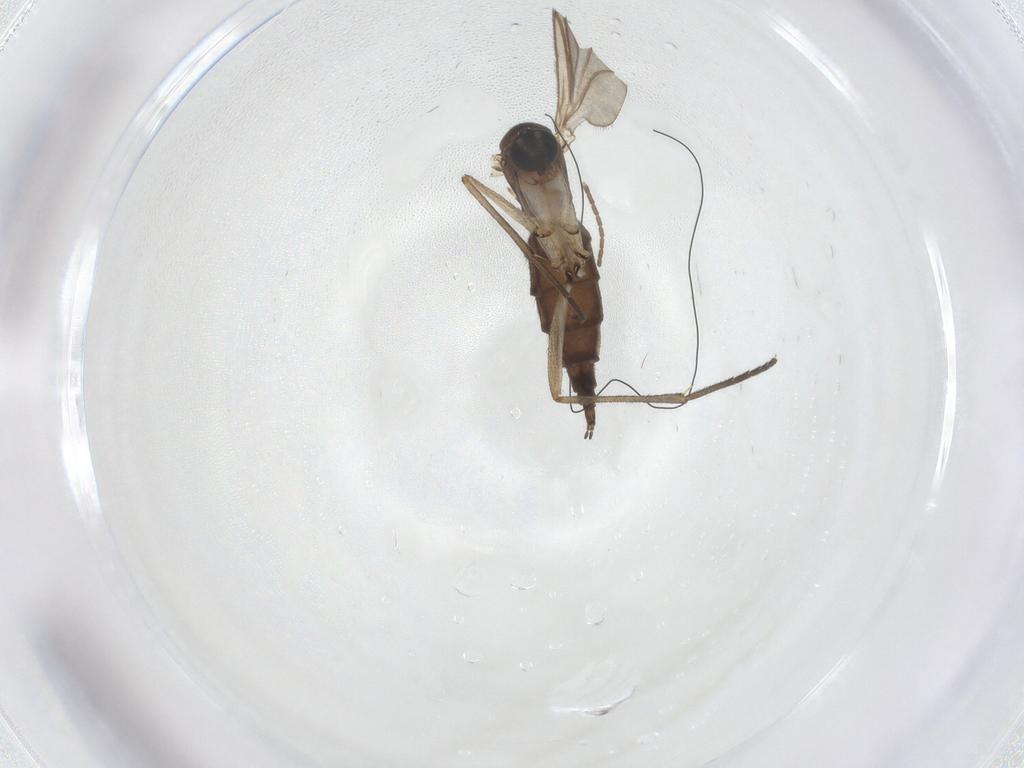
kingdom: Animalia
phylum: Arthropoda
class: Insecta
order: Diptera
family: Sciaridae
